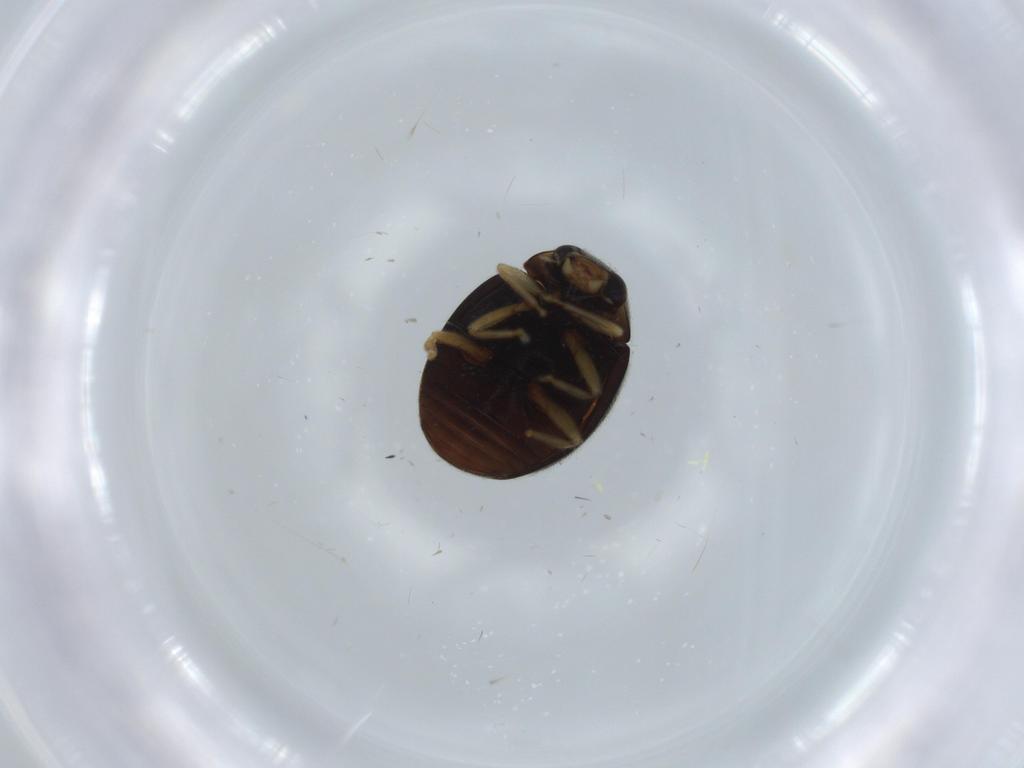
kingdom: Animalia
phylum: Arthropoda
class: Insecta
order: Coleoptera
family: Coccinellidae
